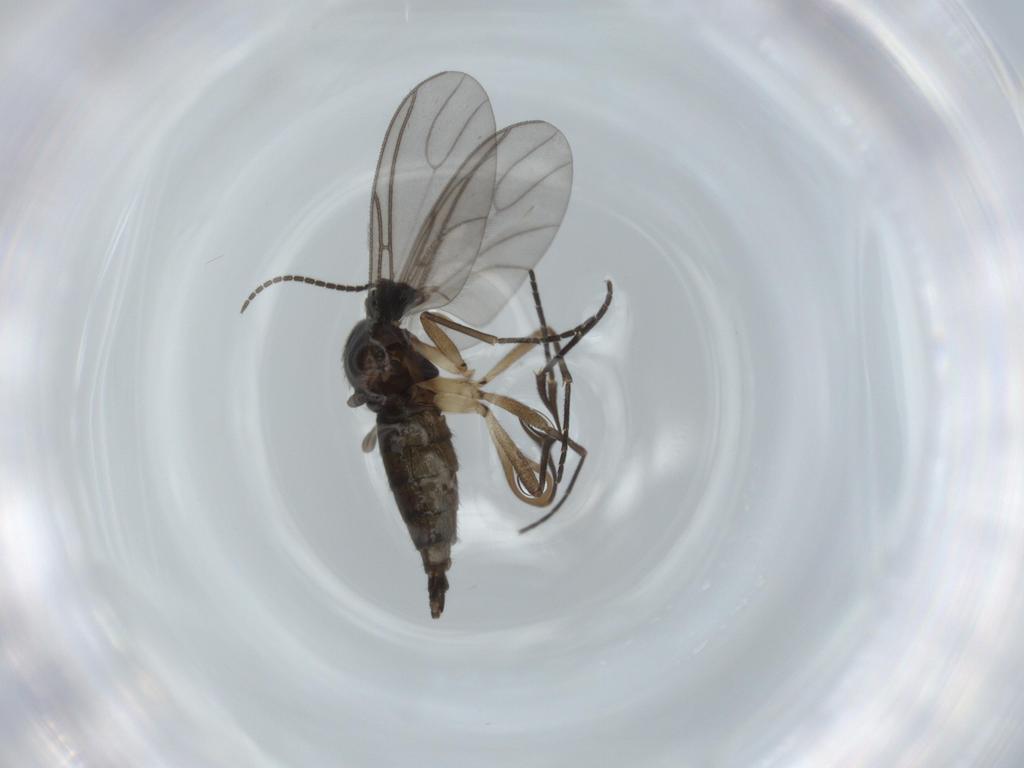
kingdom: Animalia
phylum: Arthropoda
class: Insecta
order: Diptera
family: Sciaridae
